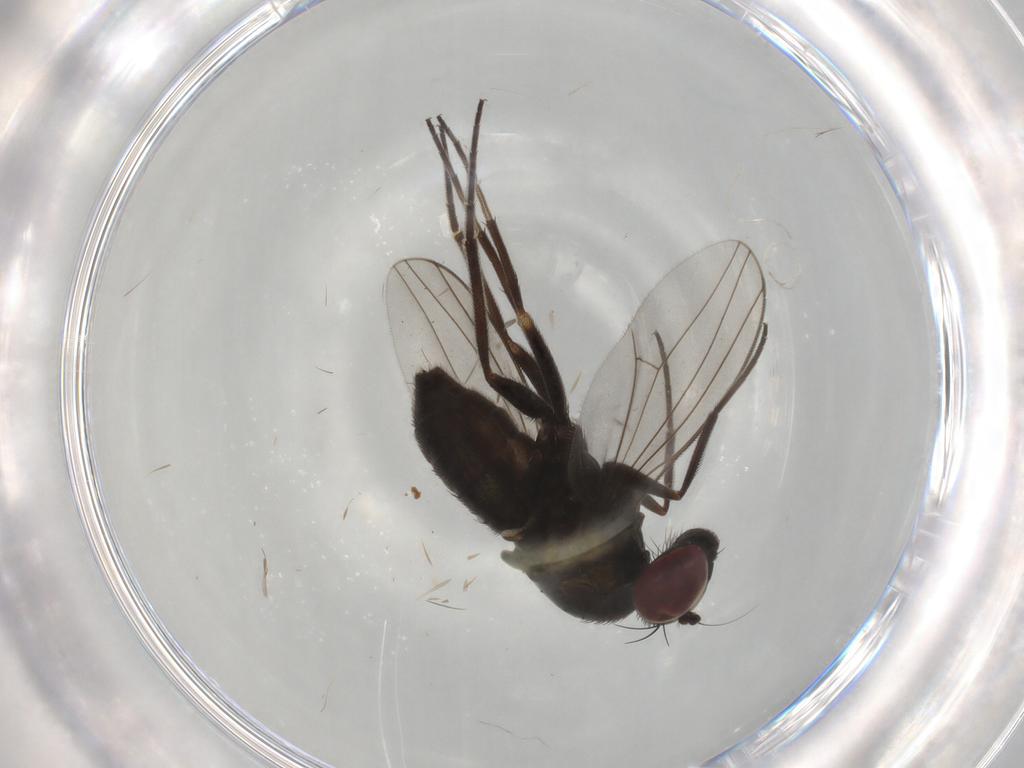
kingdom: Animalia
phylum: Arthropoda
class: Insecta
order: Diptera
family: Dolichopodidae
